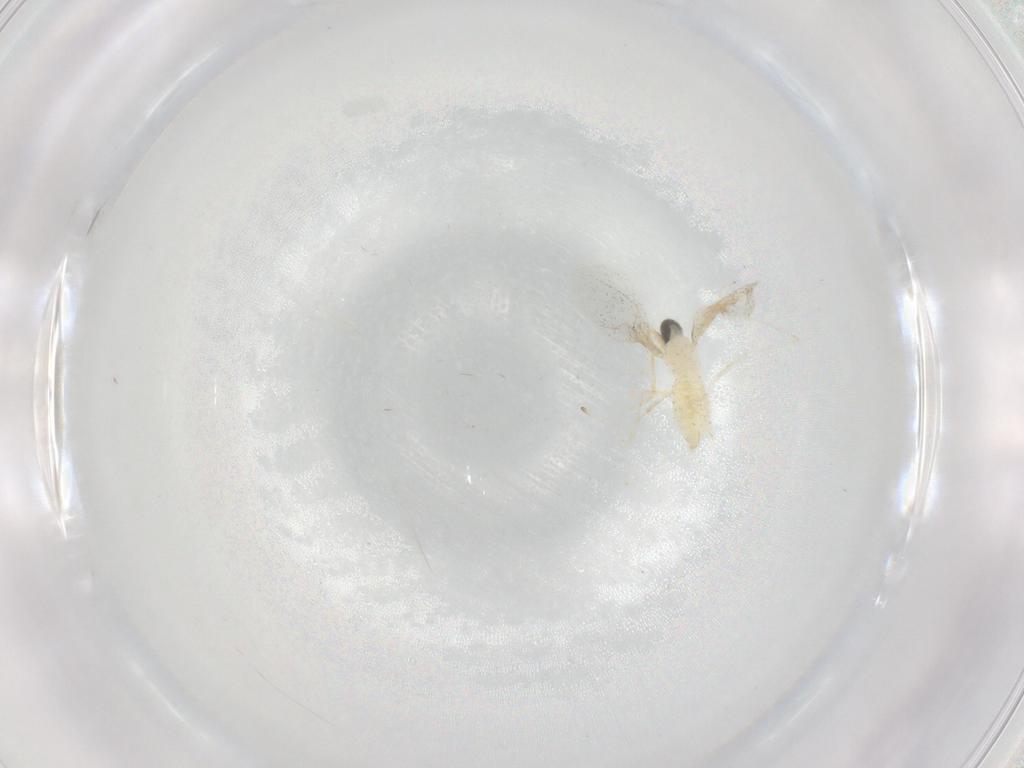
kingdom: Animalia
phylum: Arthropoda
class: Insecta
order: Diptera
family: Cecidomyiidae
